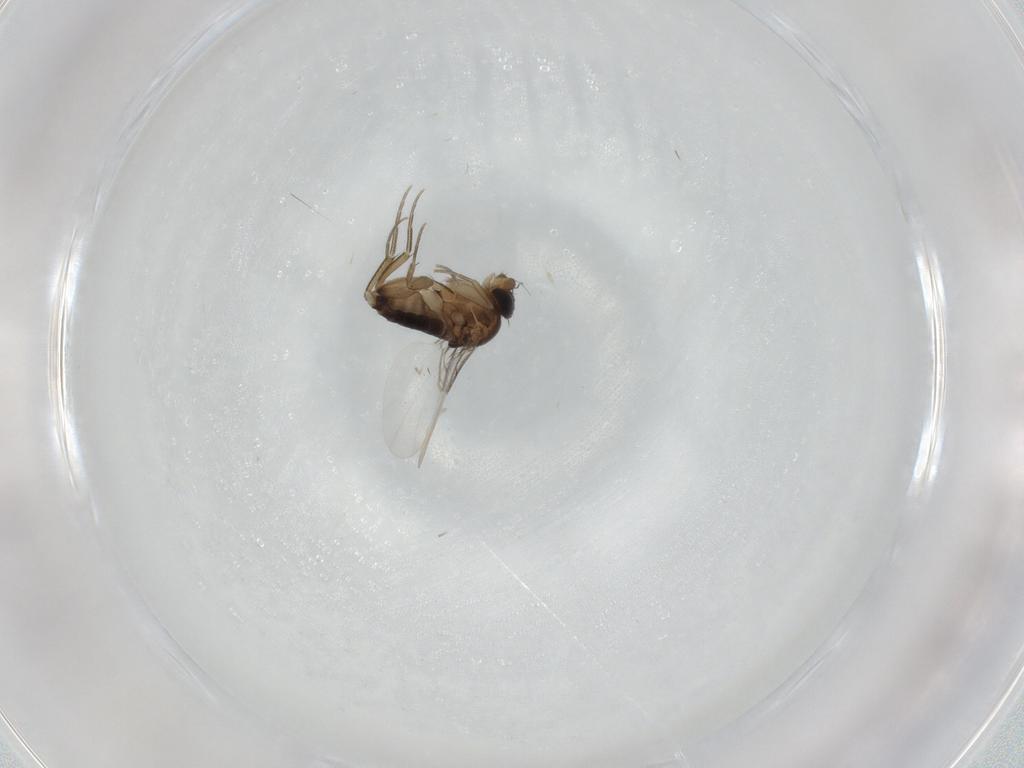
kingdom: Animalia
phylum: Arthropoda
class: Insecta
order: Diptera
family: Phoridae
